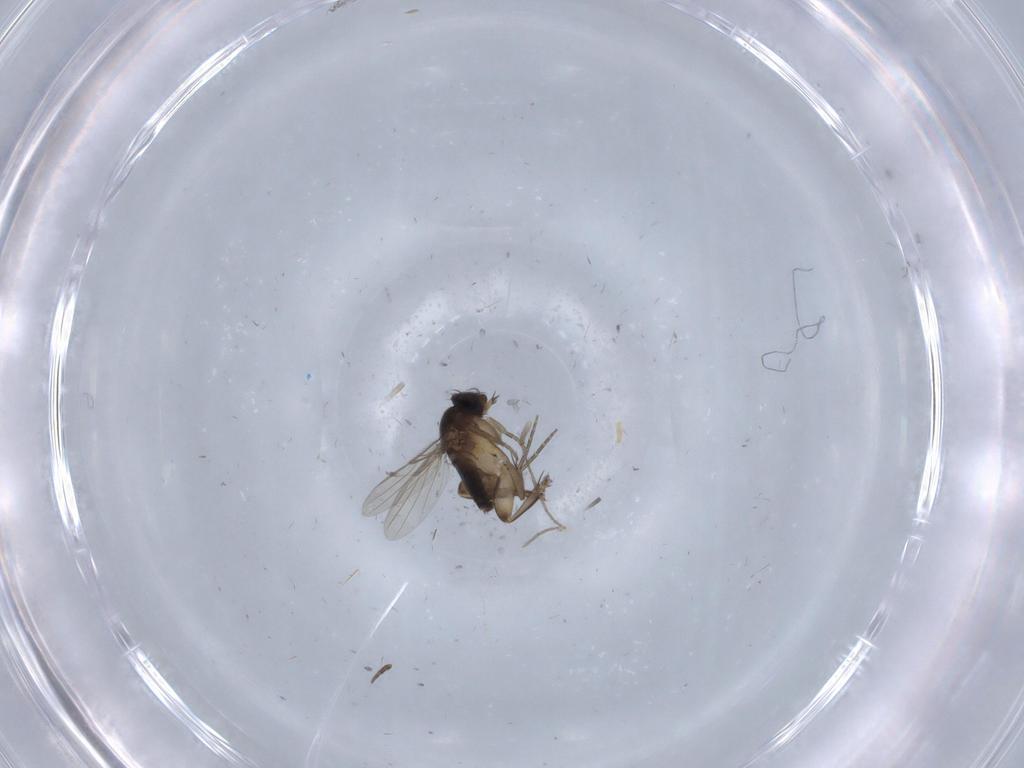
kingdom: Animalia
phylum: Arthropoda
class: Insecta
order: Diptera
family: Phoridae
